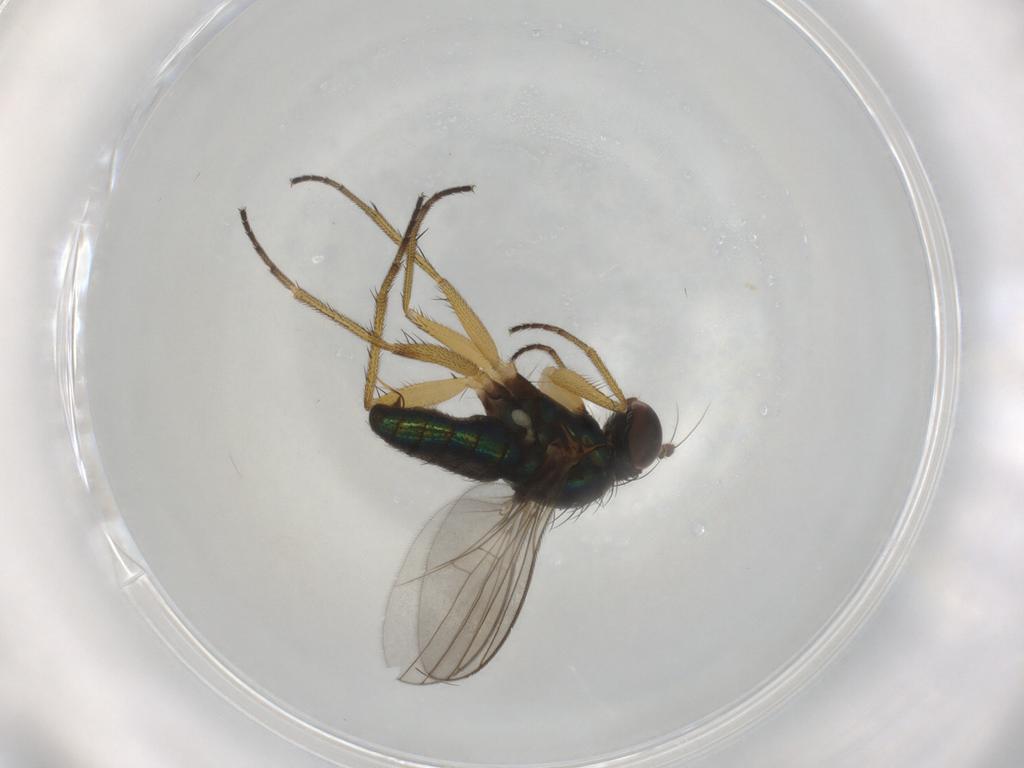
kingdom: Animalia
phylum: Arthropoda
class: Insecta
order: Diptera
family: Dolichopodidae
